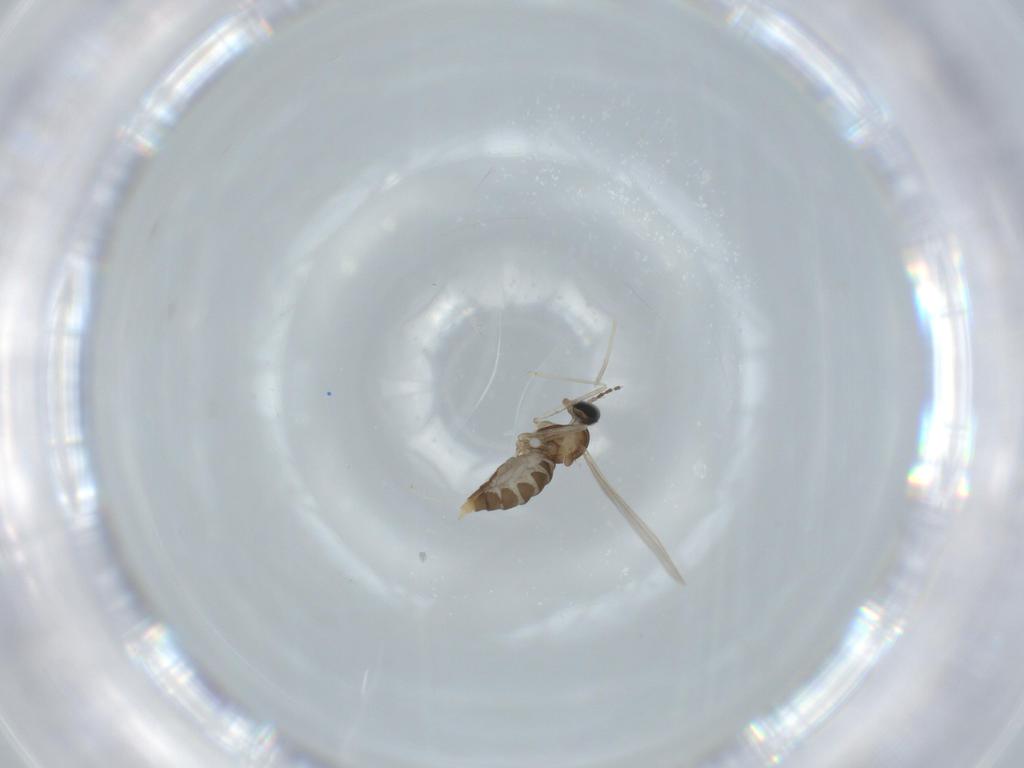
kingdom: Animalia
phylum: Arthropoda
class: Insecta
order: Diptera
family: Cecidomyiidae
